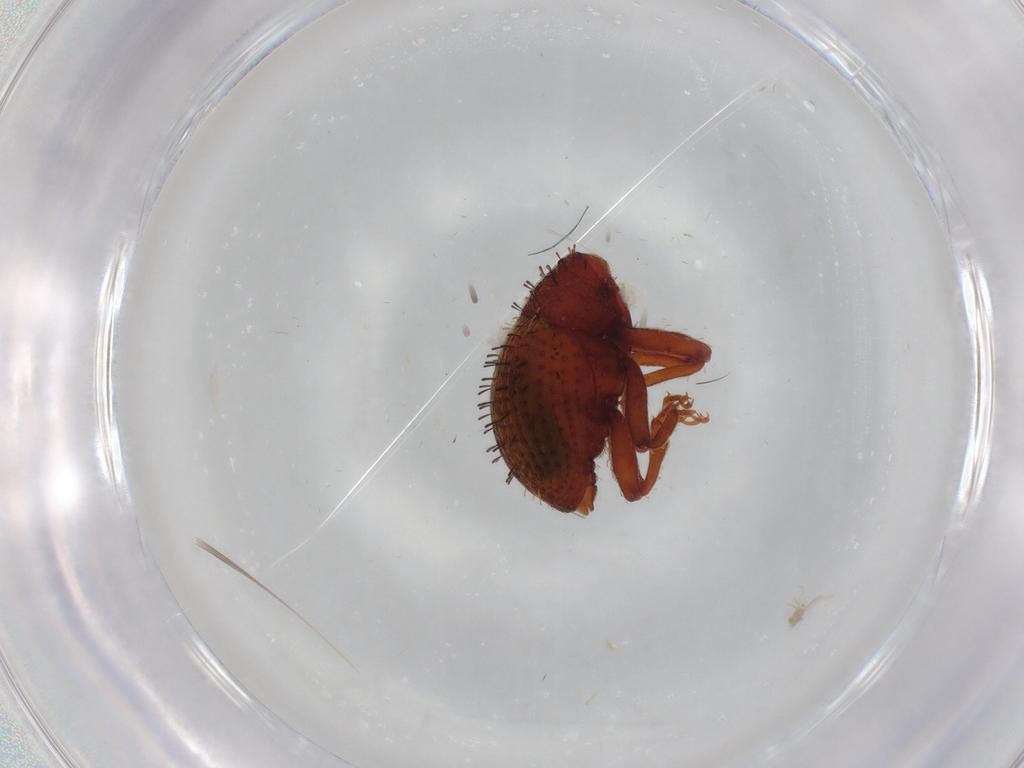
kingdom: Animalia
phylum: Arthropoda
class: Insecta
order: Coleoptera
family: Curculionidae
